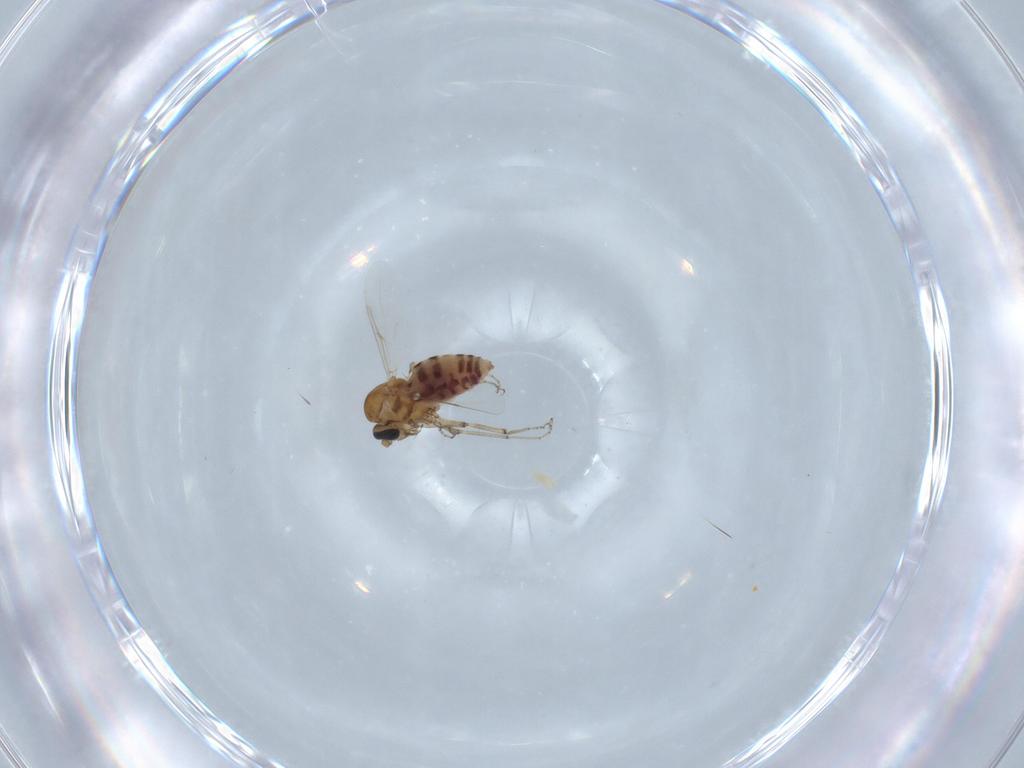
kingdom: Animalia
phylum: Arthropoda
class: Insecta
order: Diptera
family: Ceratopogonidae
